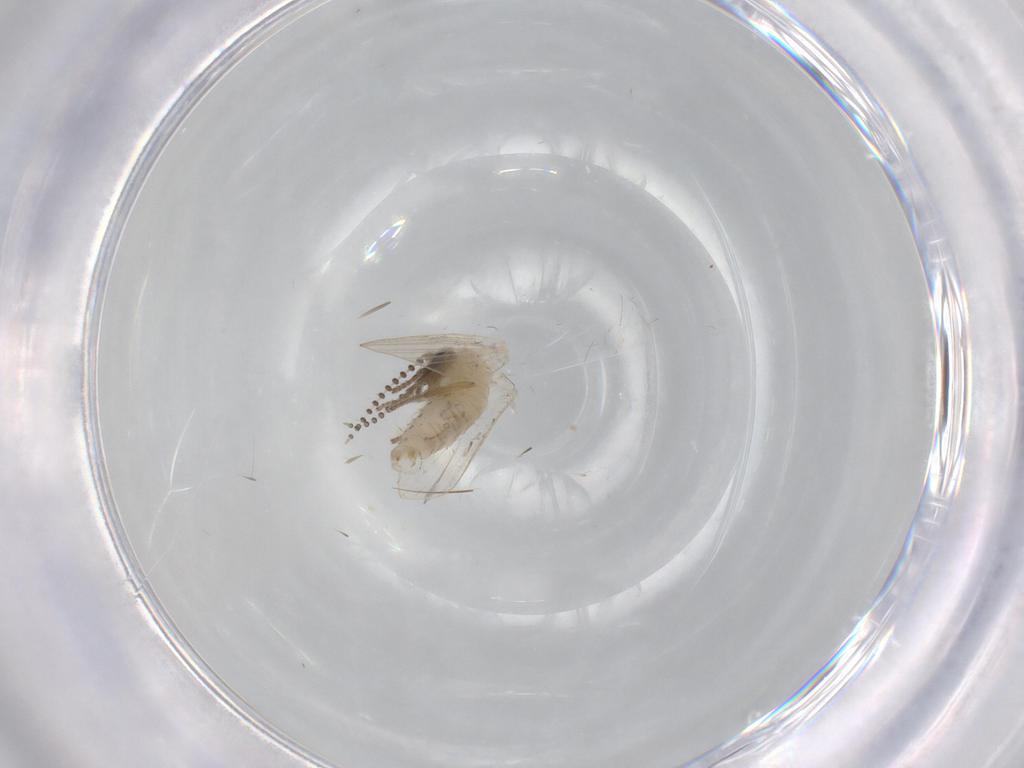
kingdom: Animalia
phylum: Arthropoda
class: Insecta
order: Diptera
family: Psychodidae
